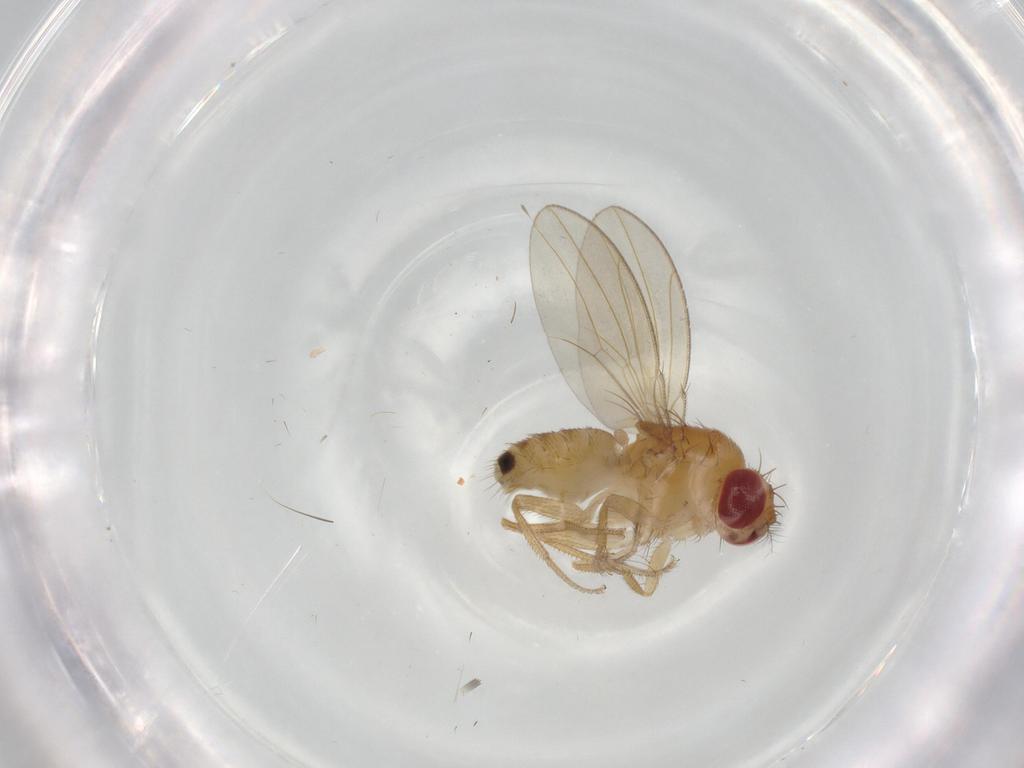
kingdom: Animalia
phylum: Arthropoda
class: Insecta
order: Diptera
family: Drosophilidae
